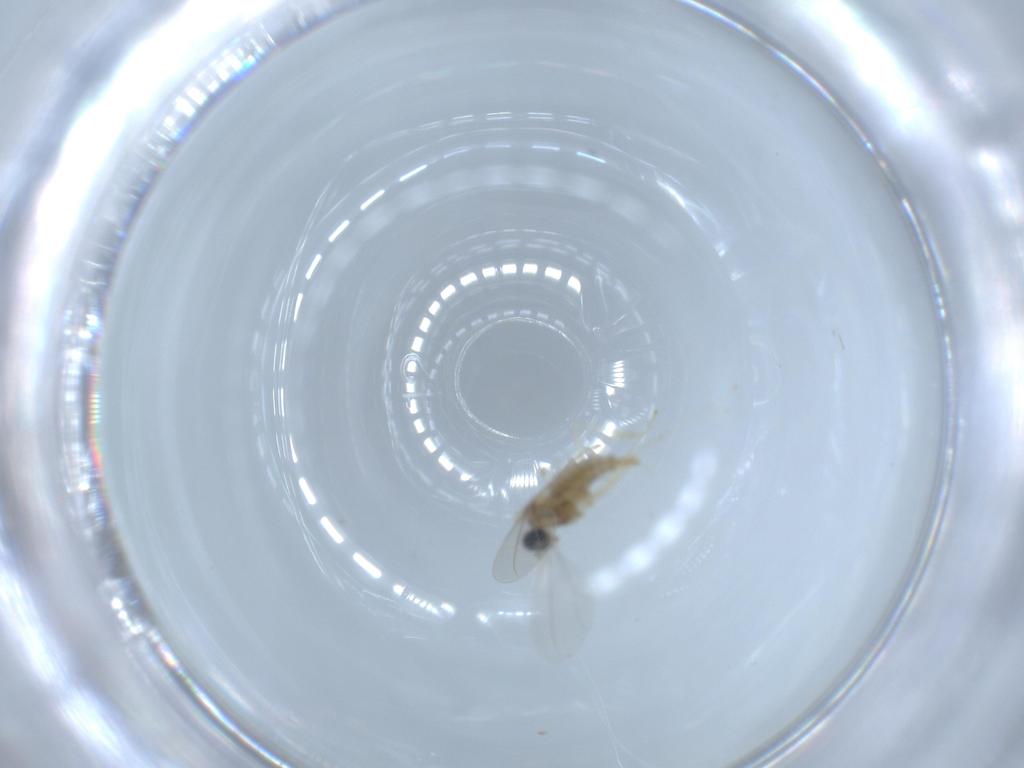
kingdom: Animalia
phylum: Arthropoda
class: Insecta
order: Diptera
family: Cecidomyiidae
